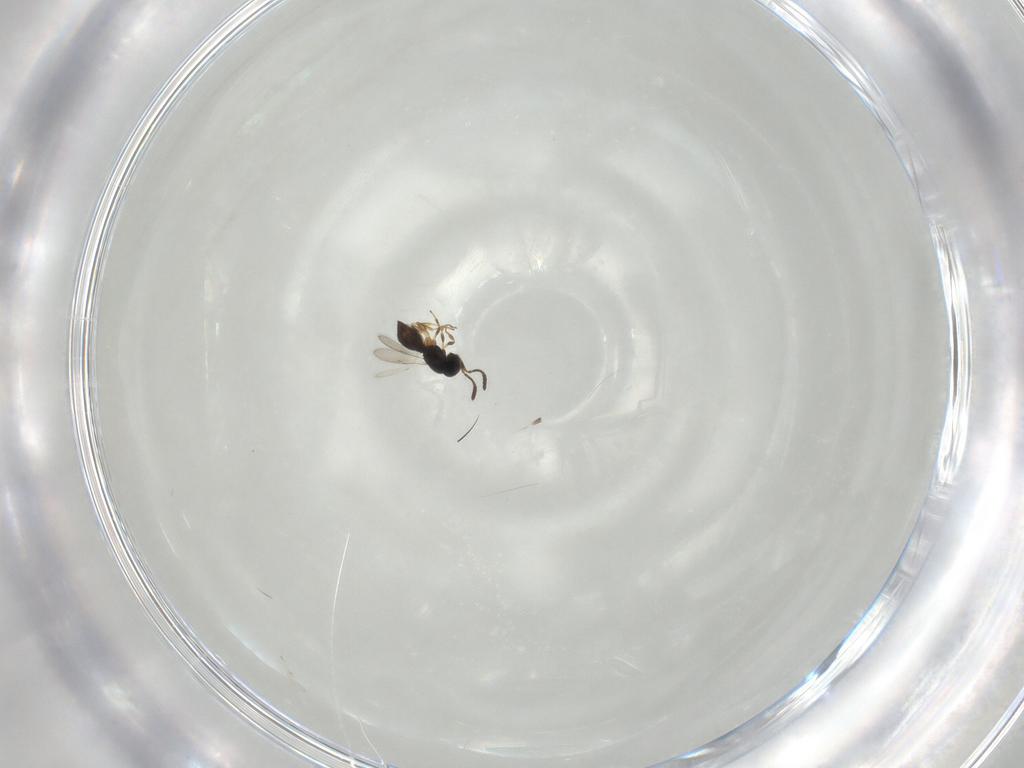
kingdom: Animalia
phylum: Arthropoda
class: Insecta
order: Hymenoptera
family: Scelionidae
